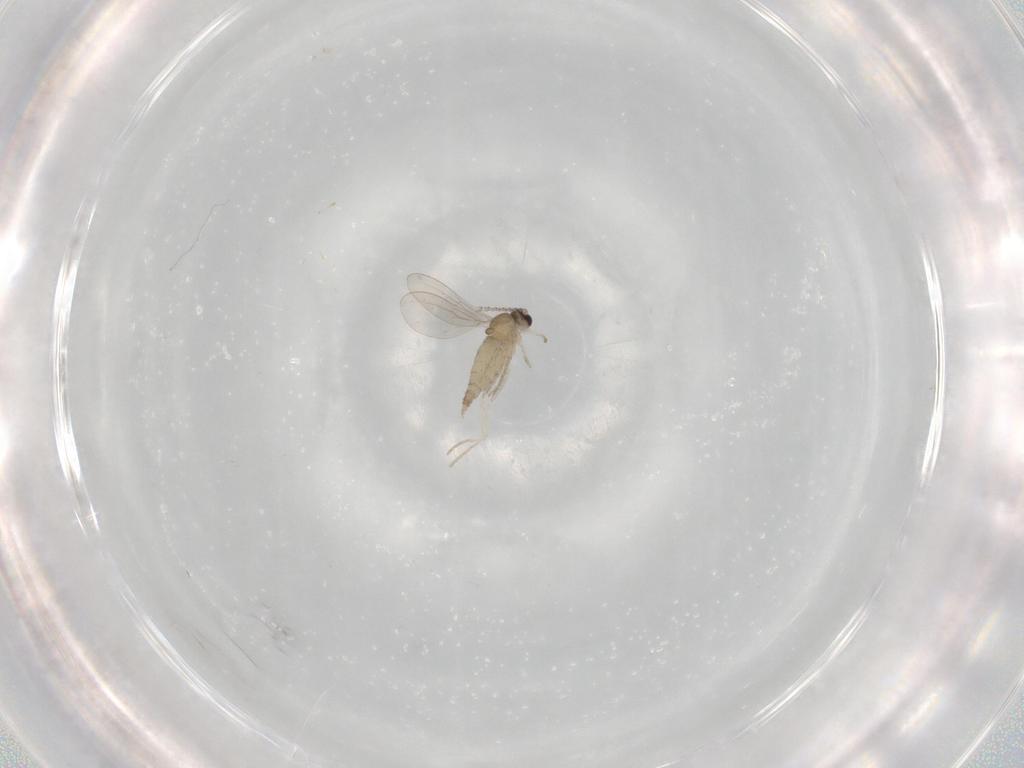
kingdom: Animalia
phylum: Arthropoda
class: Insecta
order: Diptera
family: Cecidomyiidae
